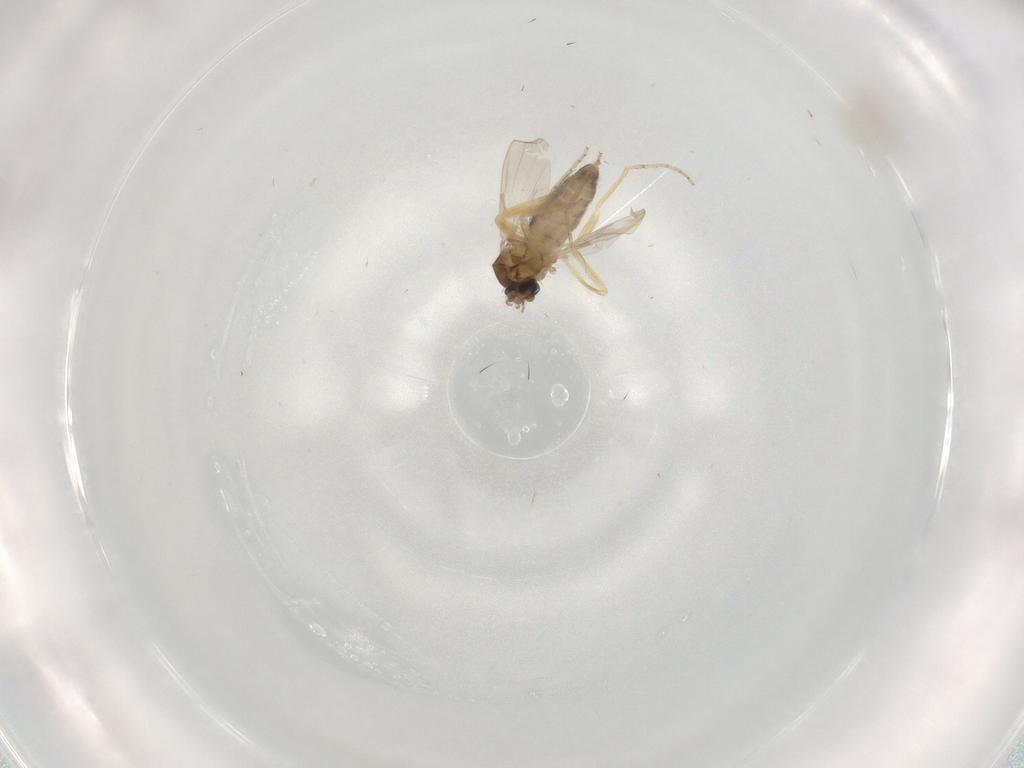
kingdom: Animalia
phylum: Arthropoda
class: Insecta
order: Diptera
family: Ceratopogonidae
